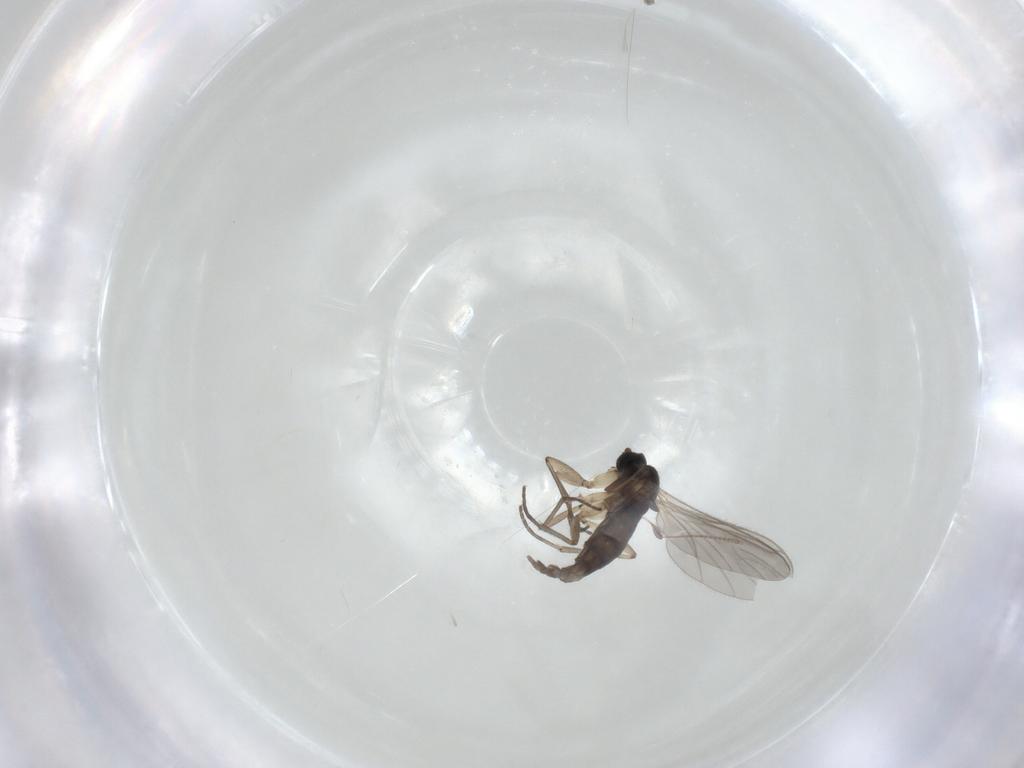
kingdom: Animalia
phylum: Arthropoda
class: Insecta
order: Diptera
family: Sciaridae
